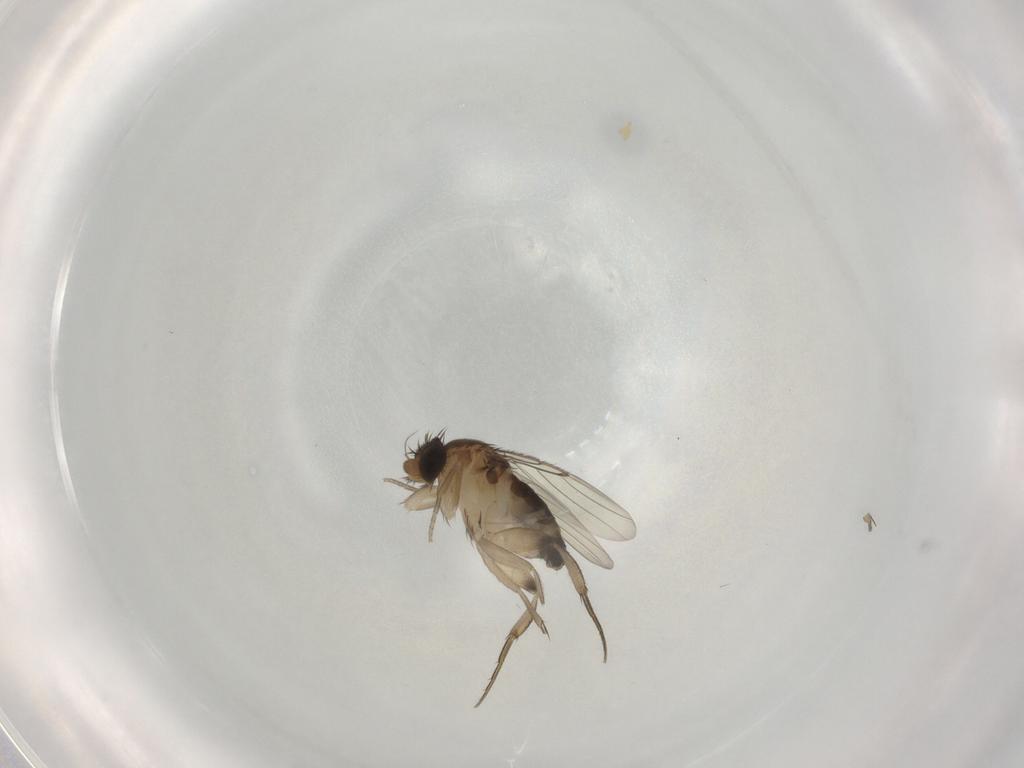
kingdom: Animalia
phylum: Arthropoda
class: Insecta
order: Diptera
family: Phoridae
